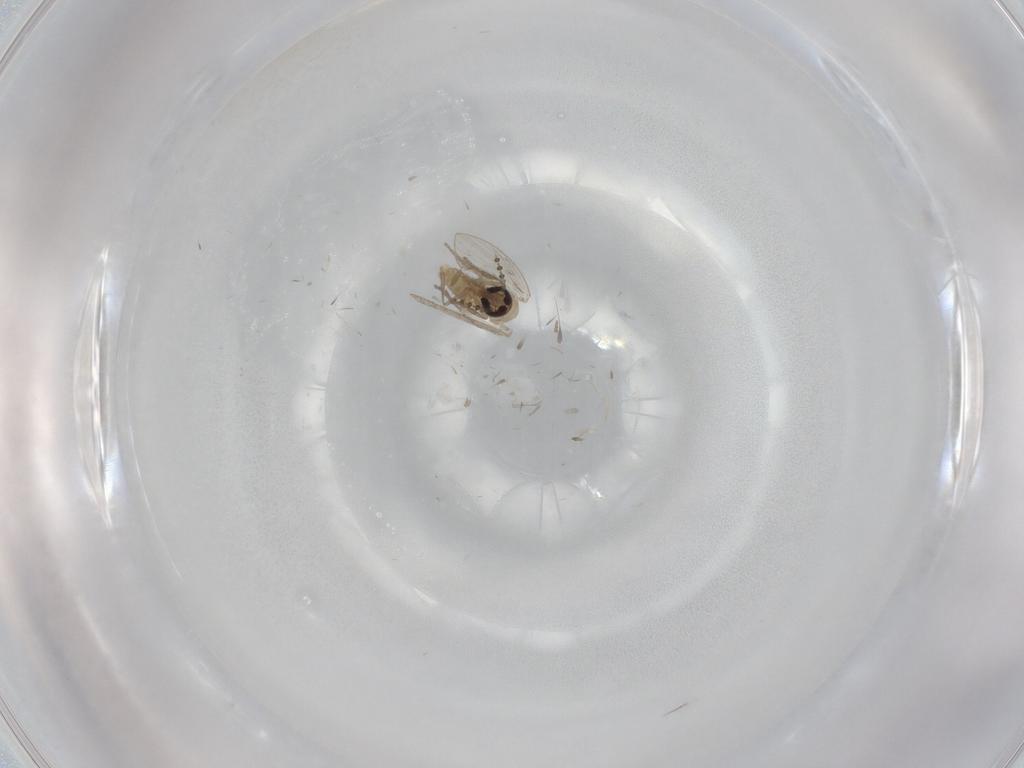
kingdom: Animalia
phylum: Arthropoda
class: Insecta
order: Diptera
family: Psychodidae
